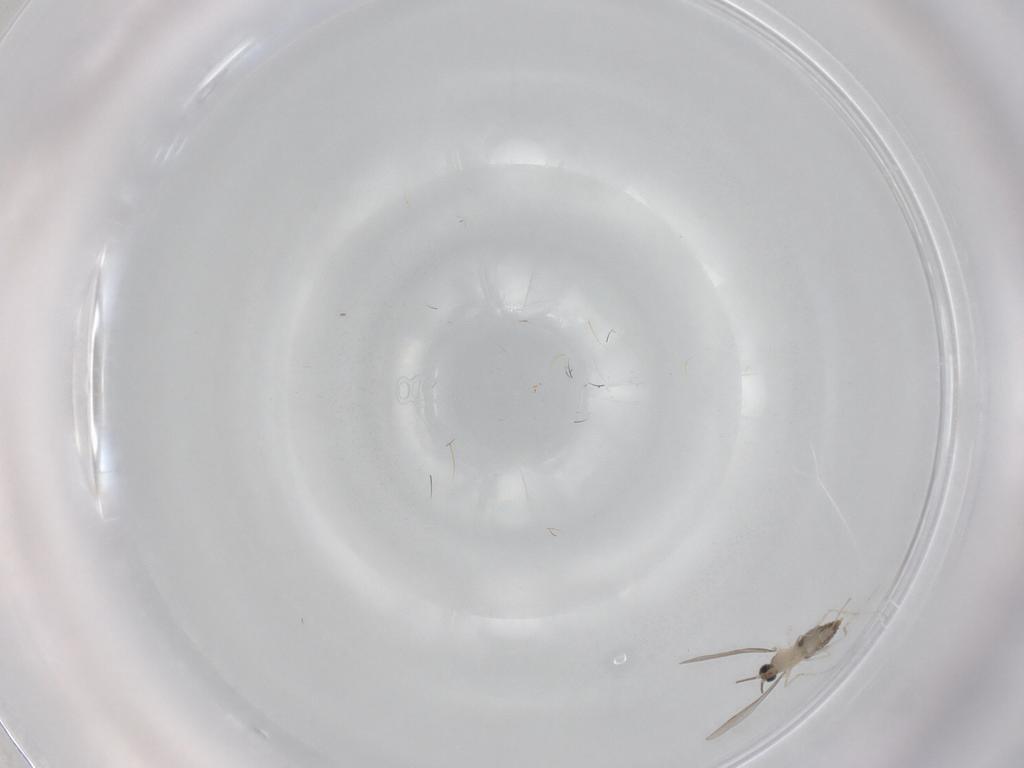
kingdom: Animalia
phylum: Arthropoda
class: Insecta
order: Diptera
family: Cecidomyiidae
